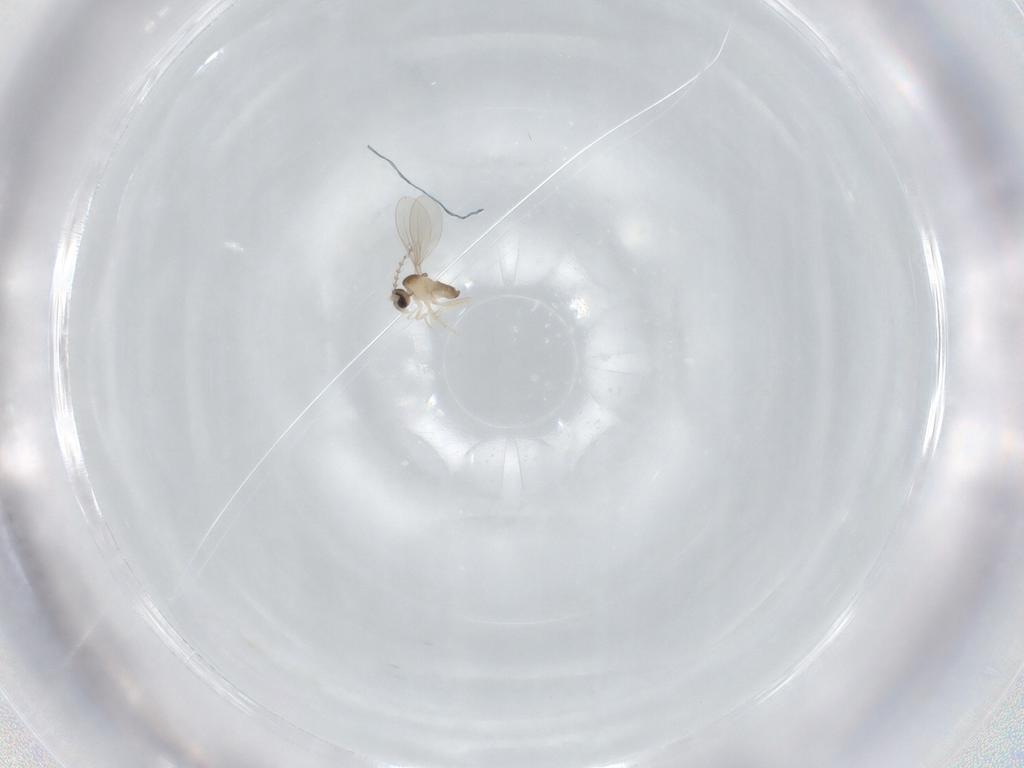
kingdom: Animalia
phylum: Arthropoda
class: Insecta
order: Diptera
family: Cecidomyiidae
